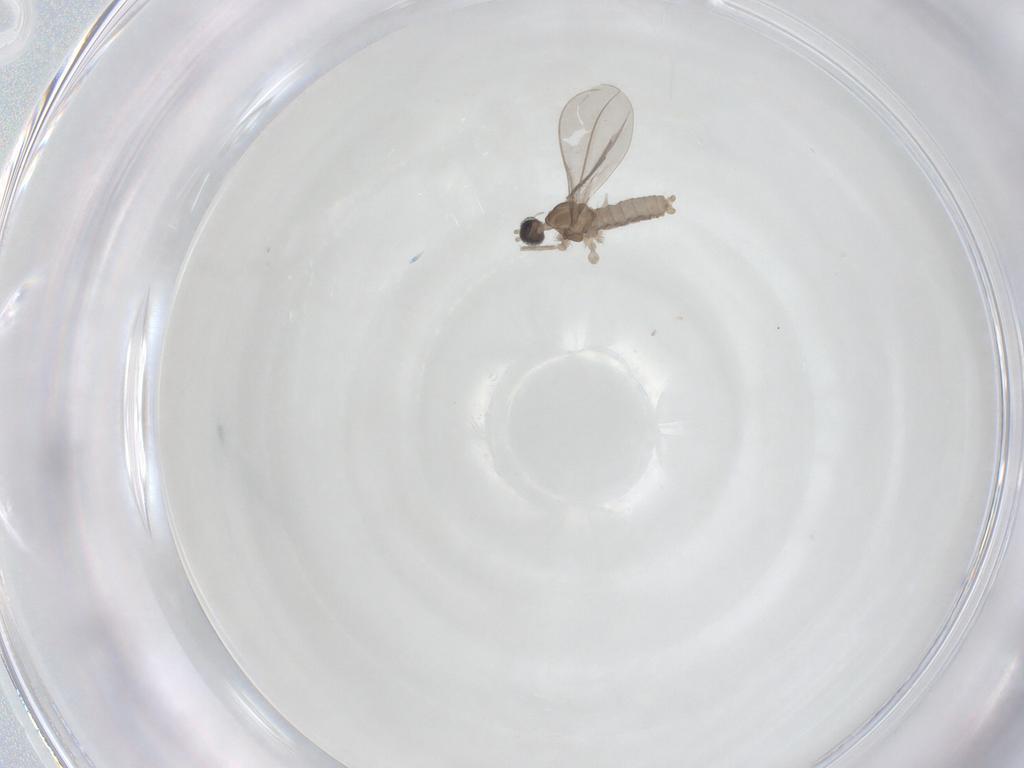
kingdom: Animalia
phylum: Arthropoda
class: Insecta
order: Diptera
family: Cecidomyiidae
